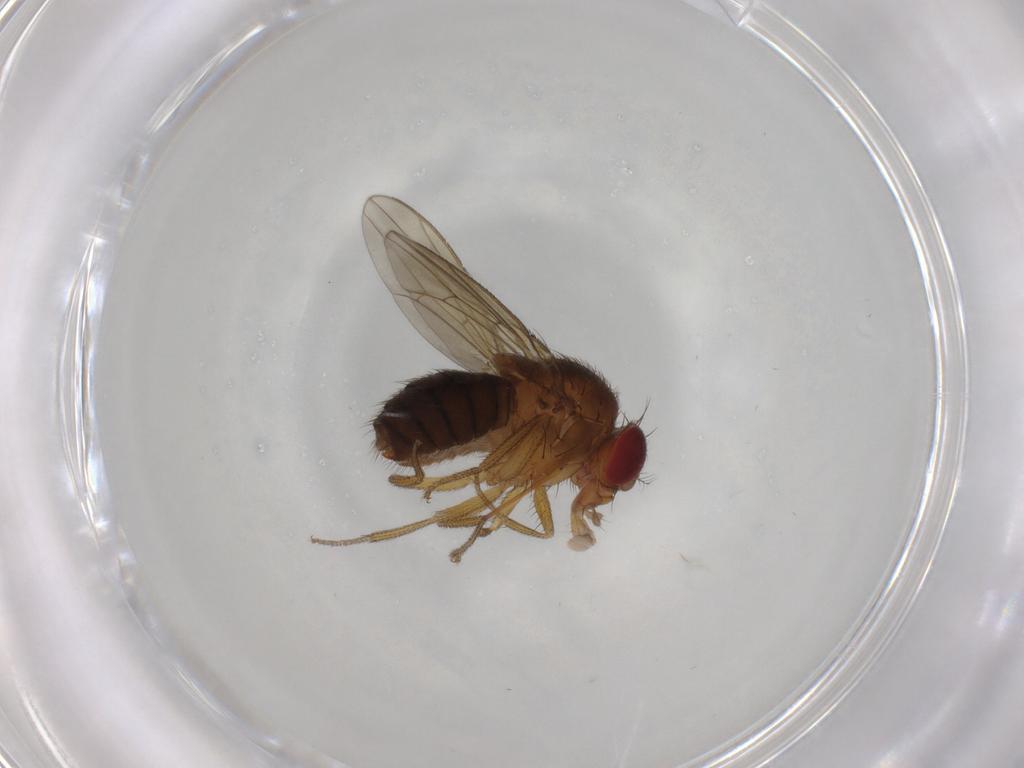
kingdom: Animalia
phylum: Arthropoda
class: Insecta
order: Diptera
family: Drosophilidae
